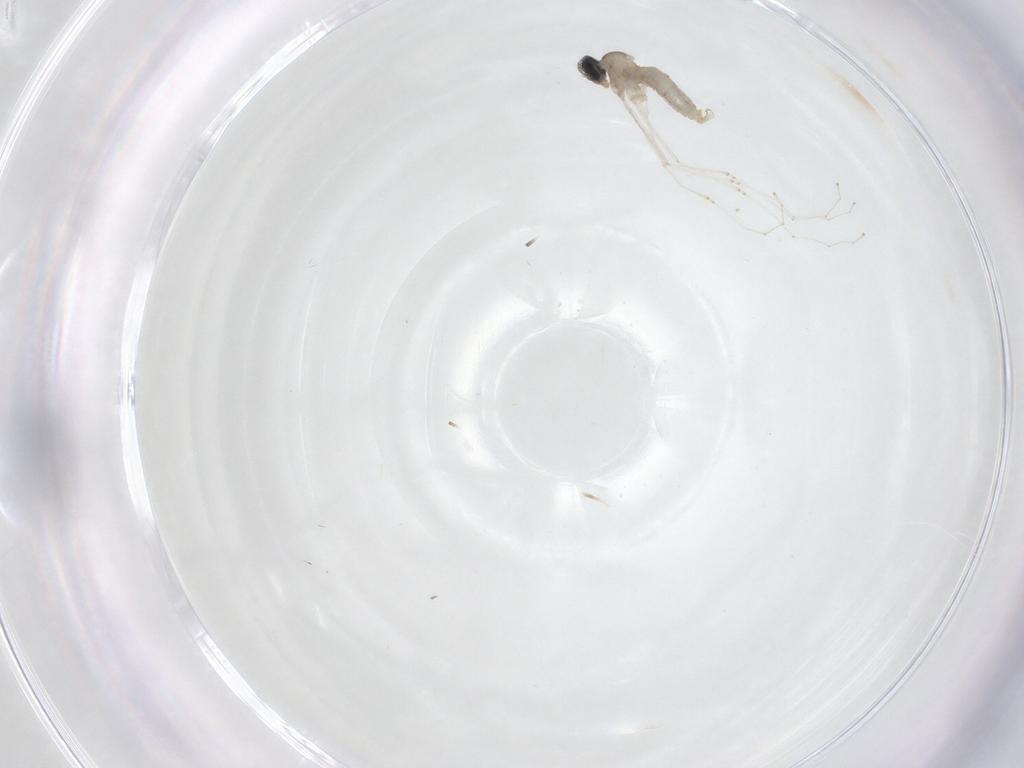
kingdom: Animalia
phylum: Arthropoda
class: Insecta
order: Diptera
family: Cecidomyiidae
